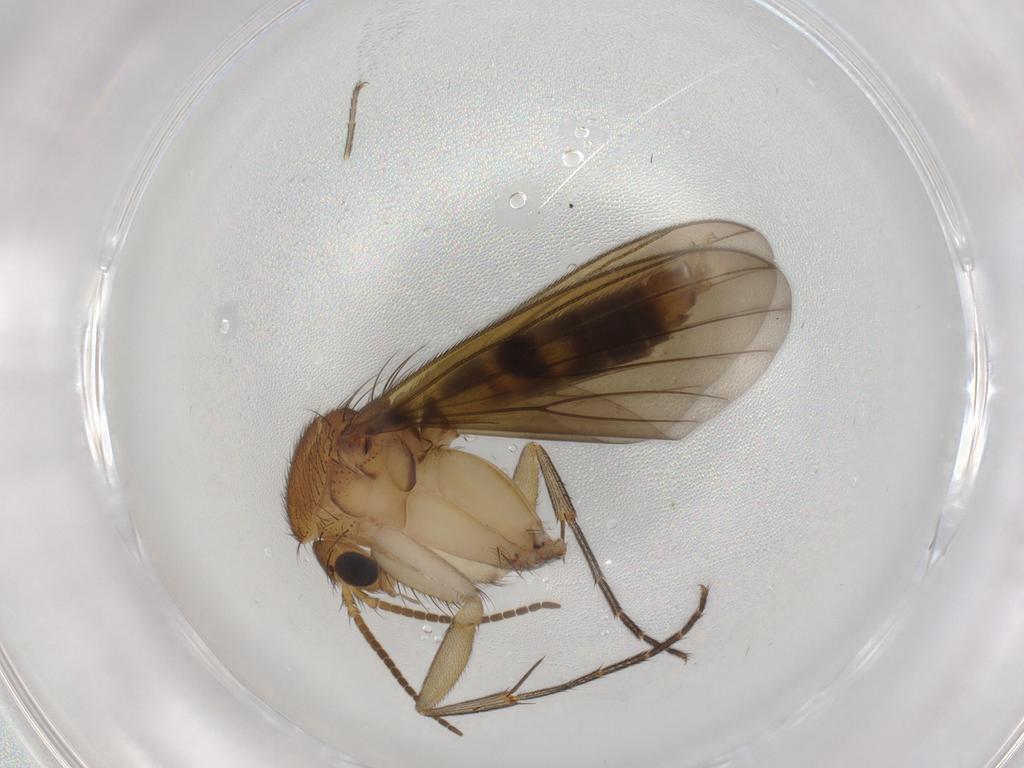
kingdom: Animalia
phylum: Arthropoda
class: Insecta
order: Diptera
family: Mycetophilidae
